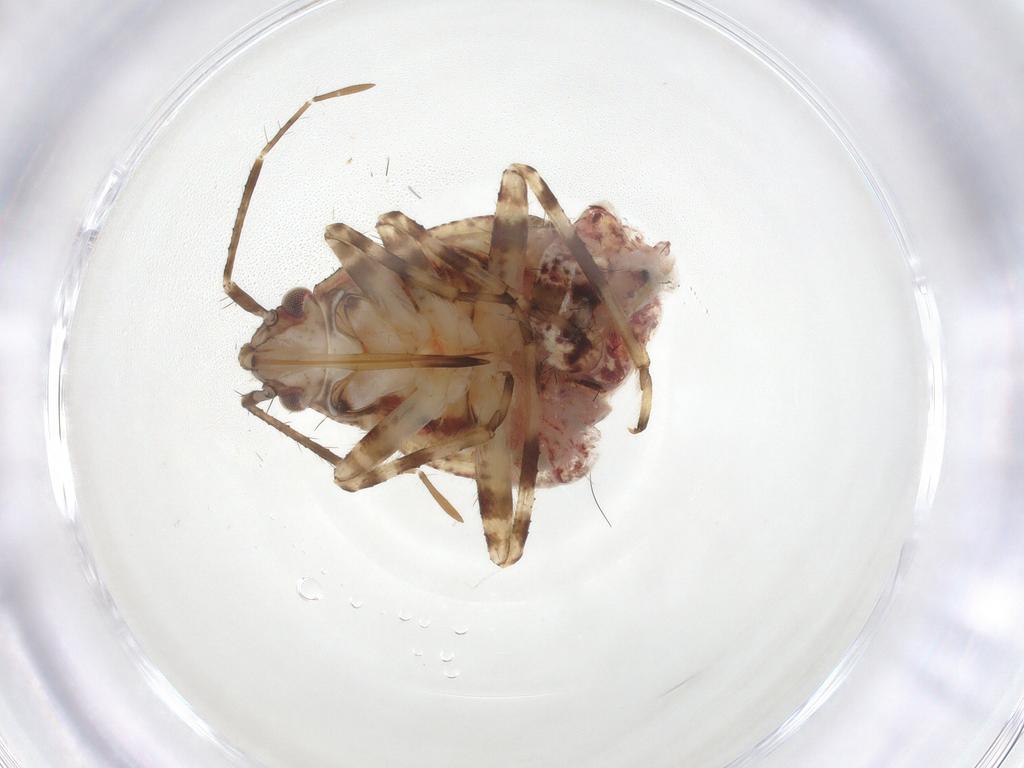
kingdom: Animalia
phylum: Arthropoda
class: Insecta
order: Hemiptera
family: Miridae
